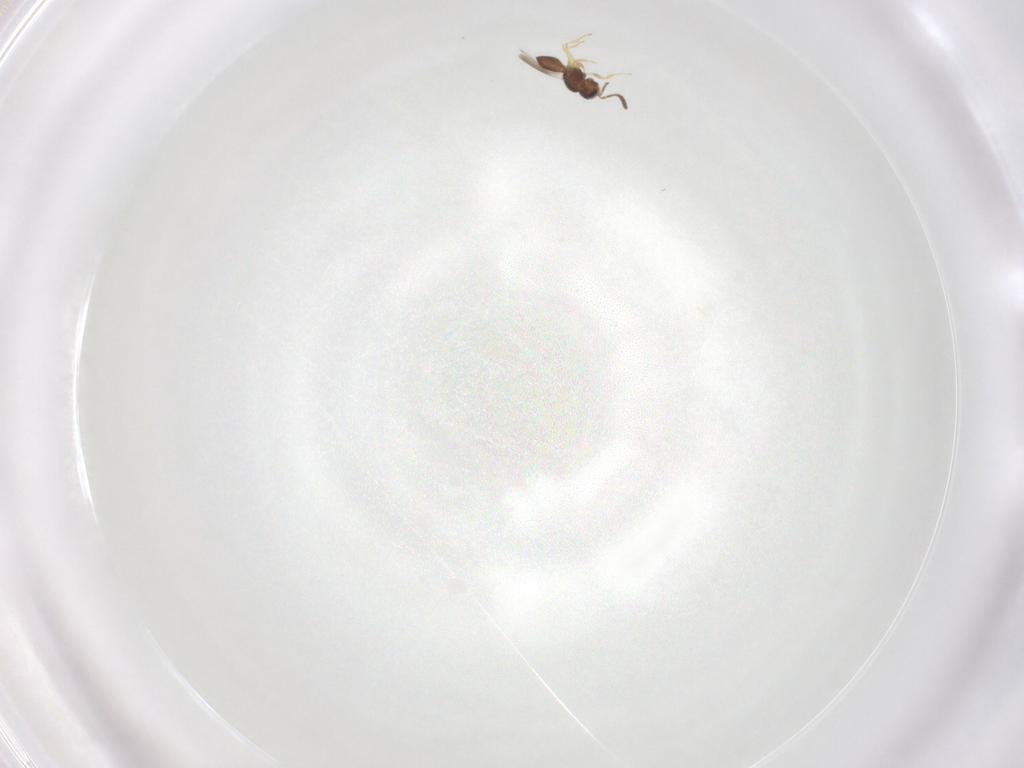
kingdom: Animalia
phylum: Arthropoda
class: Insecta
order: Hymenoptera
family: Scelionidae
